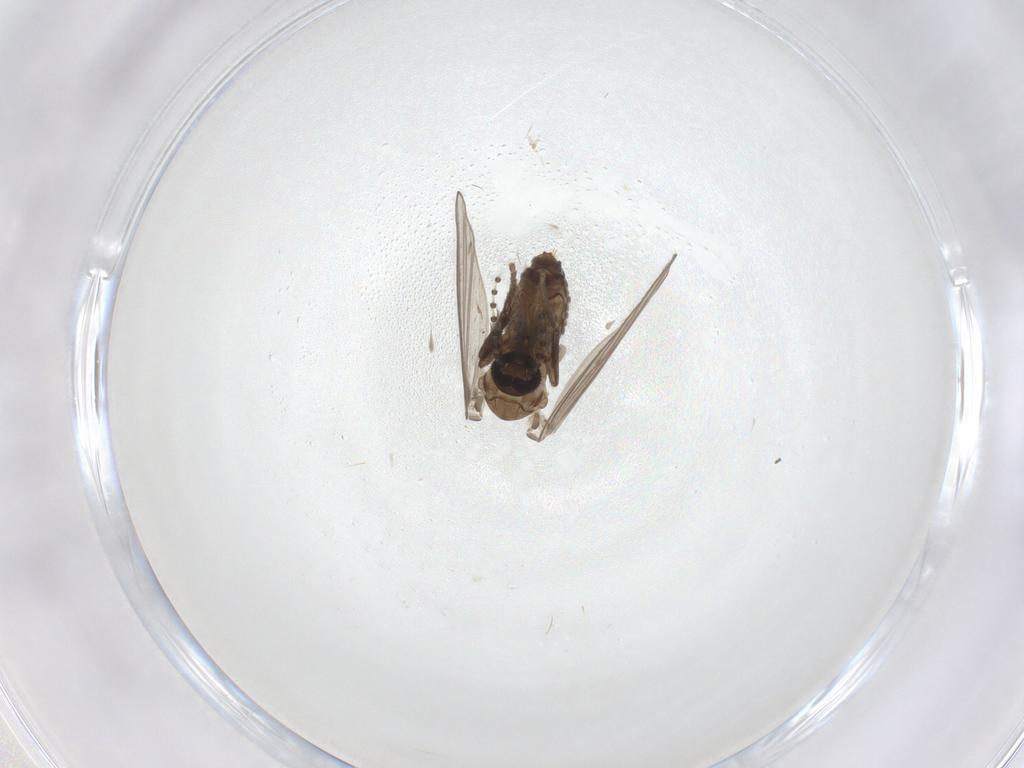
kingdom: Animalia
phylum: Arthropoda
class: Insecta
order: Diptera
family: Psychodidae
